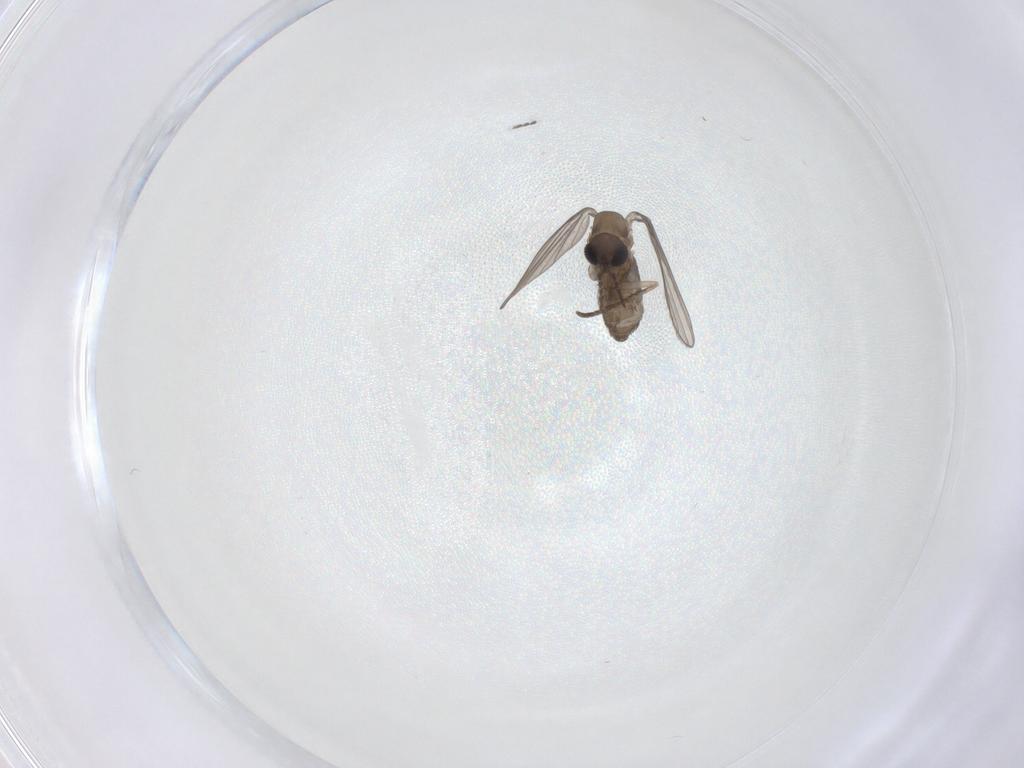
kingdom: Animalia
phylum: Arthropoda
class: Insecta
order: Diptera
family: Psychodidae
